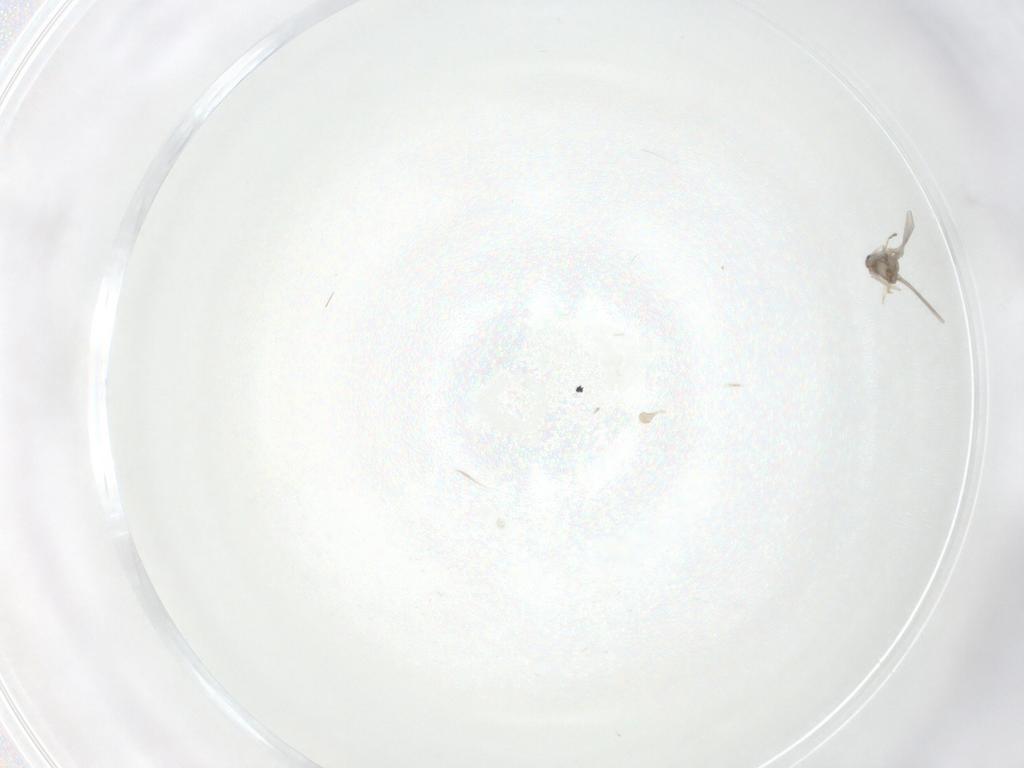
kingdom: Animalia
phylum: Arthropoda
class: Insecta
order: Diptera
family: Cecidomyiidae
